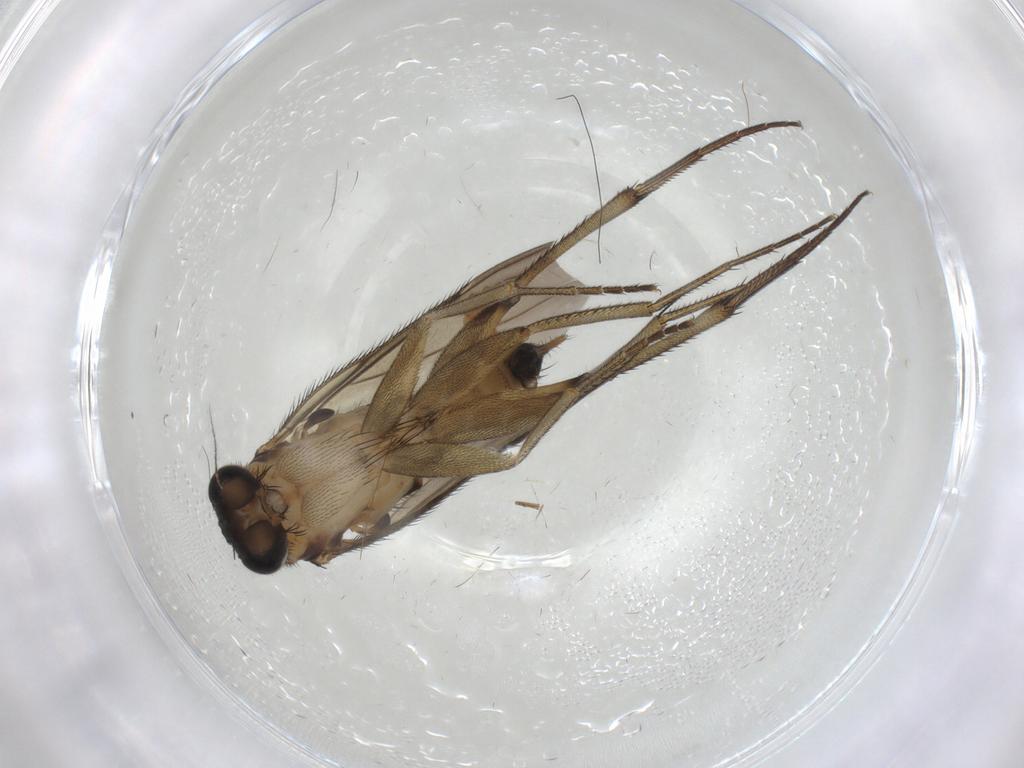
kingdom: Animalia
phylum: Arthropoda
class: Insecta
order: Diptera
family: Phoridae
